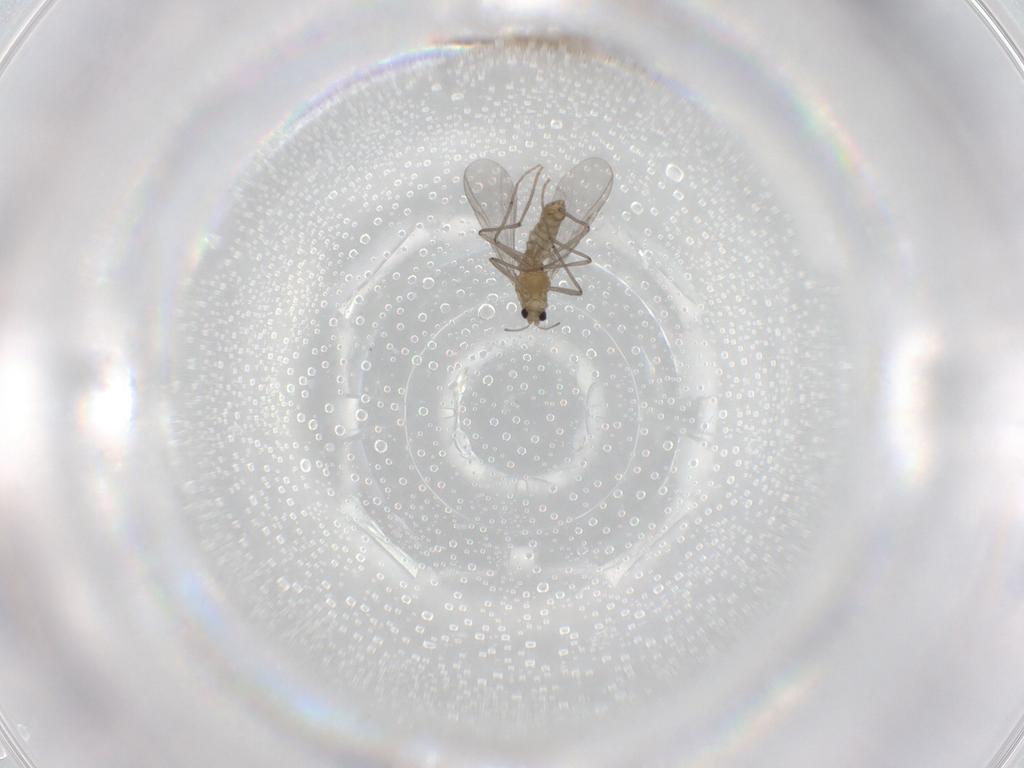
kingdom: Animalia
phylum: Arthropoda
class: Insecta
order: Diptera
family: Chironomidae
